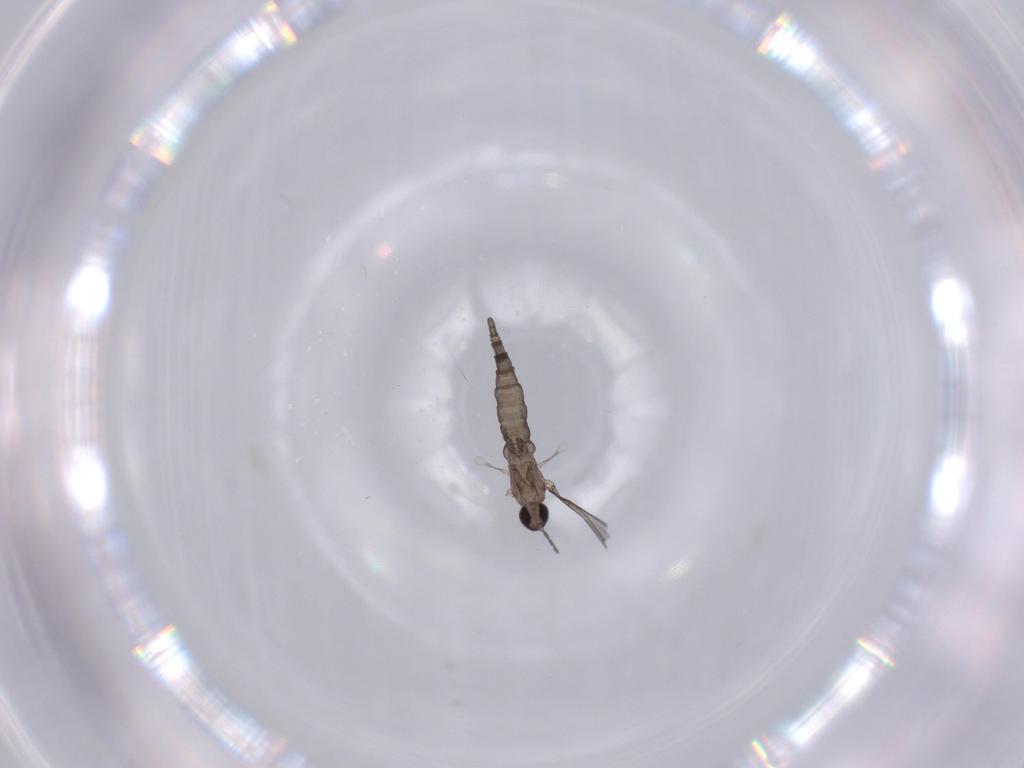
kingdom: Animalia
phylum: Arthropoda
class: Insecta
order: Diptera
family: Cecidomyiidae
